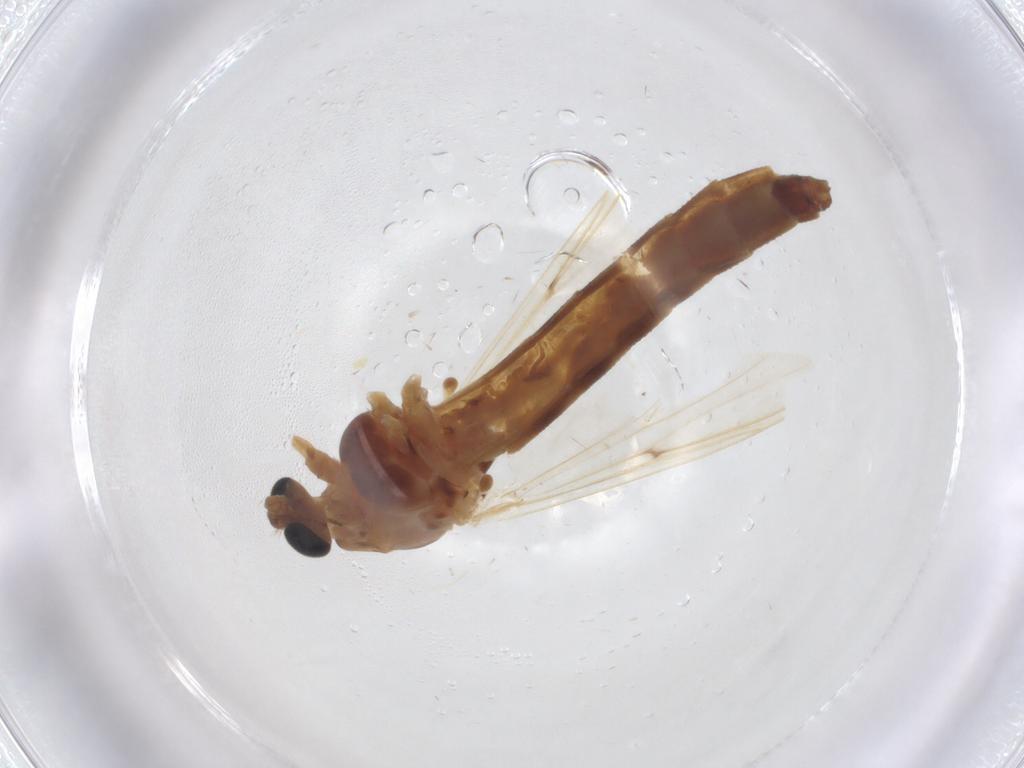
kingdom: Animalia
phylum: Arthropoda
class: Insecta
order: Diptera
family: Chironomidae
